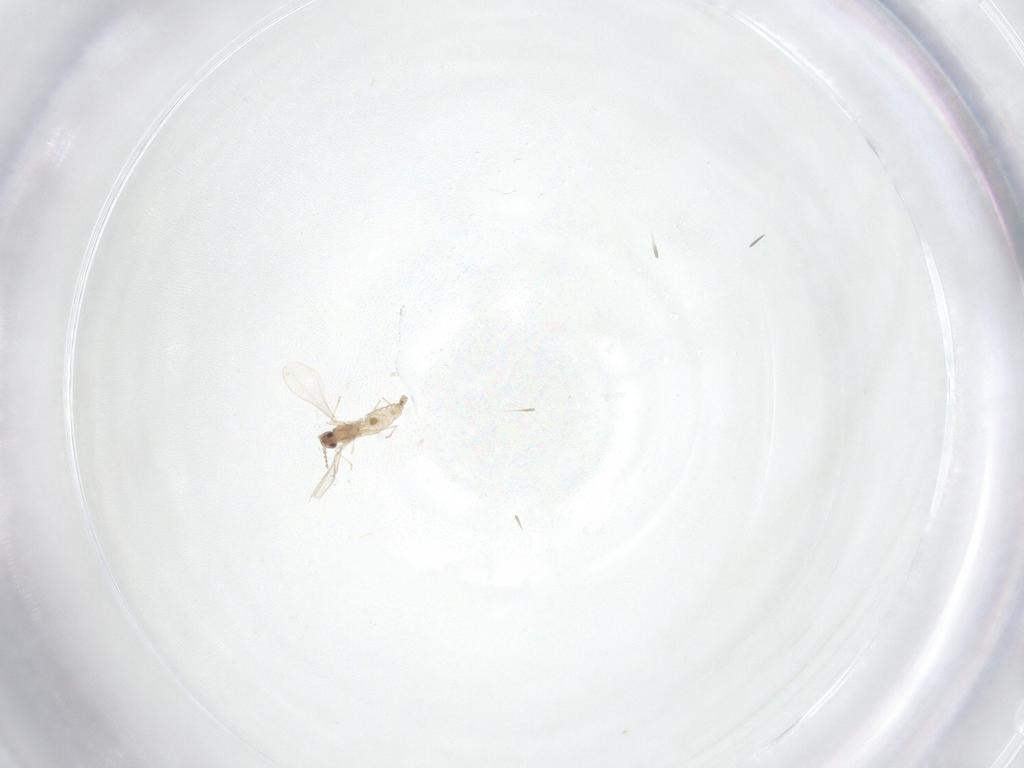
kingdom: Animalia
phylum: Arthropoda
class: Insecta
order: Diptera
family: Cecidomyiidae
